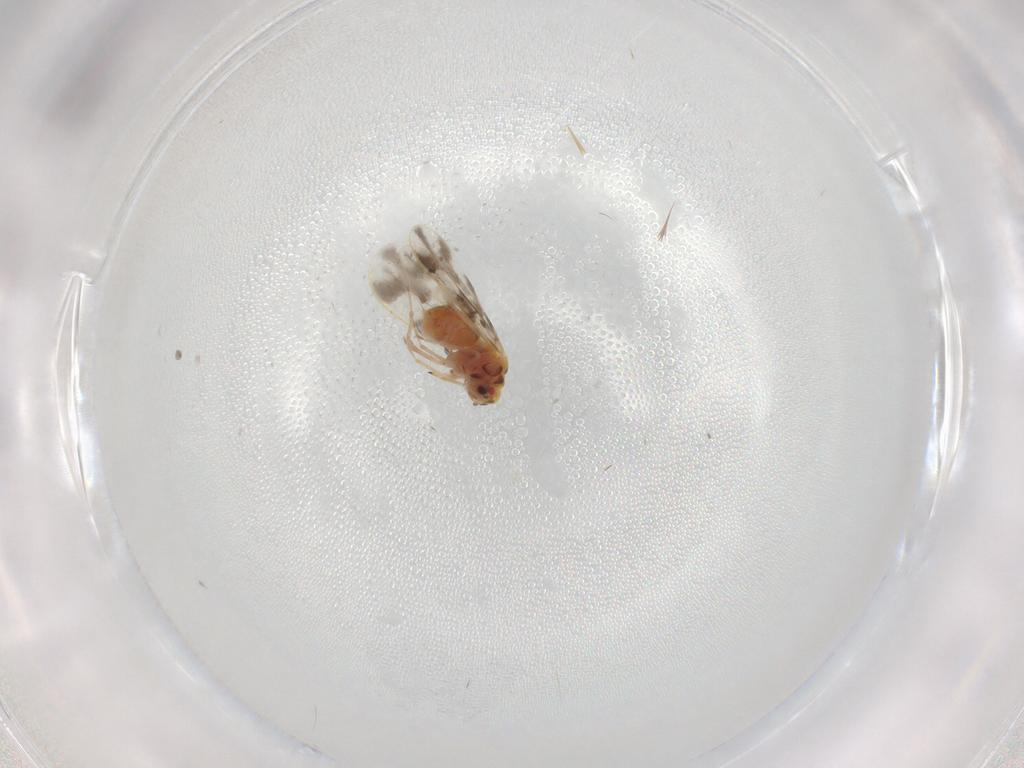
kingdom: Animalia
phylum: Arthropoda
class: Insecta
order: Hemiptera
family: Aleyrodidae
